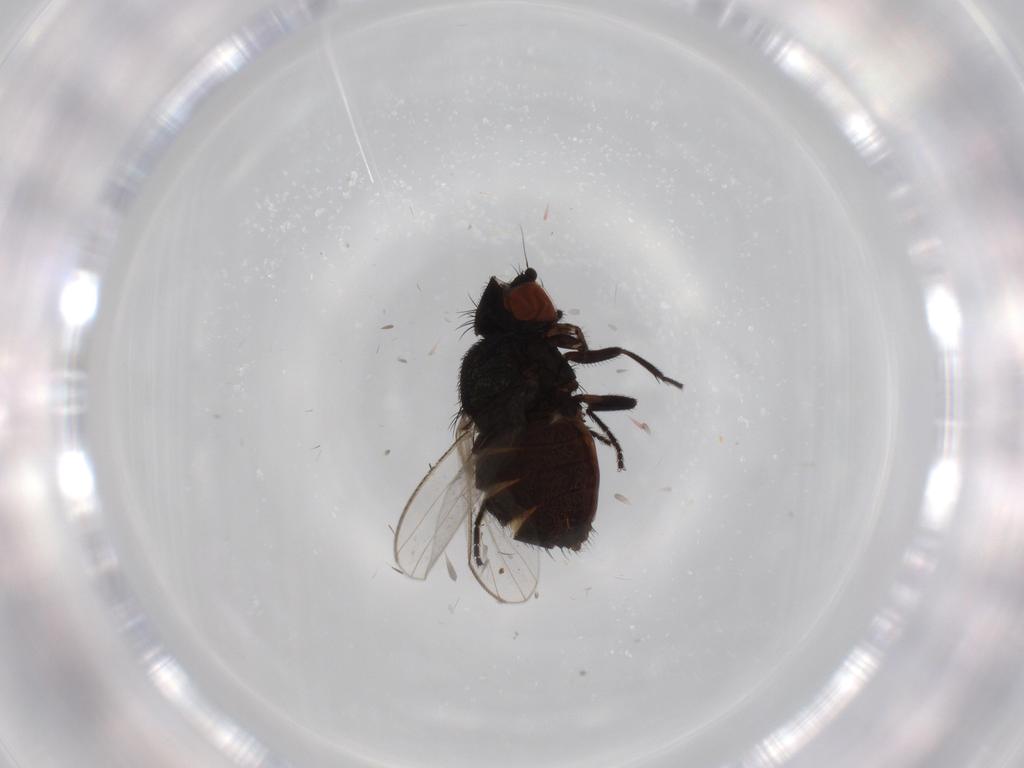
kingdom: Animalia
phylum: Arthropoda
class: Insecta
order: Diptera
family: Milichiidae
